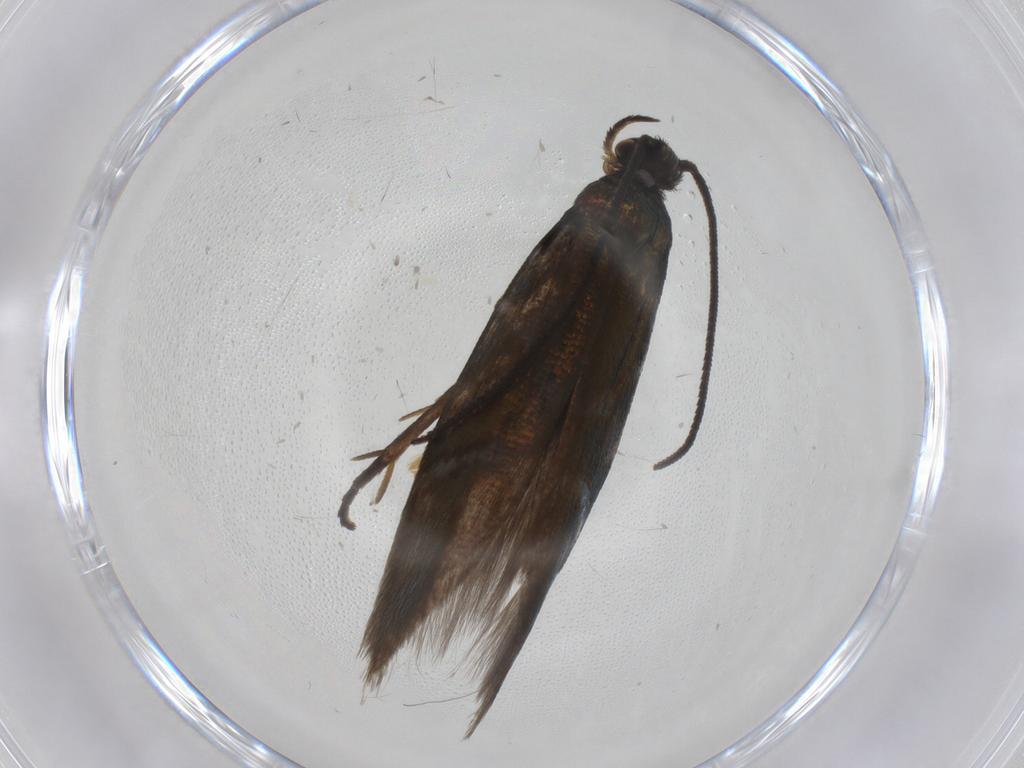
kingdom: Animalia
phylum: Arthropoda
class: Insecta
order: Lepidoptera
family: Argyresthiidae
